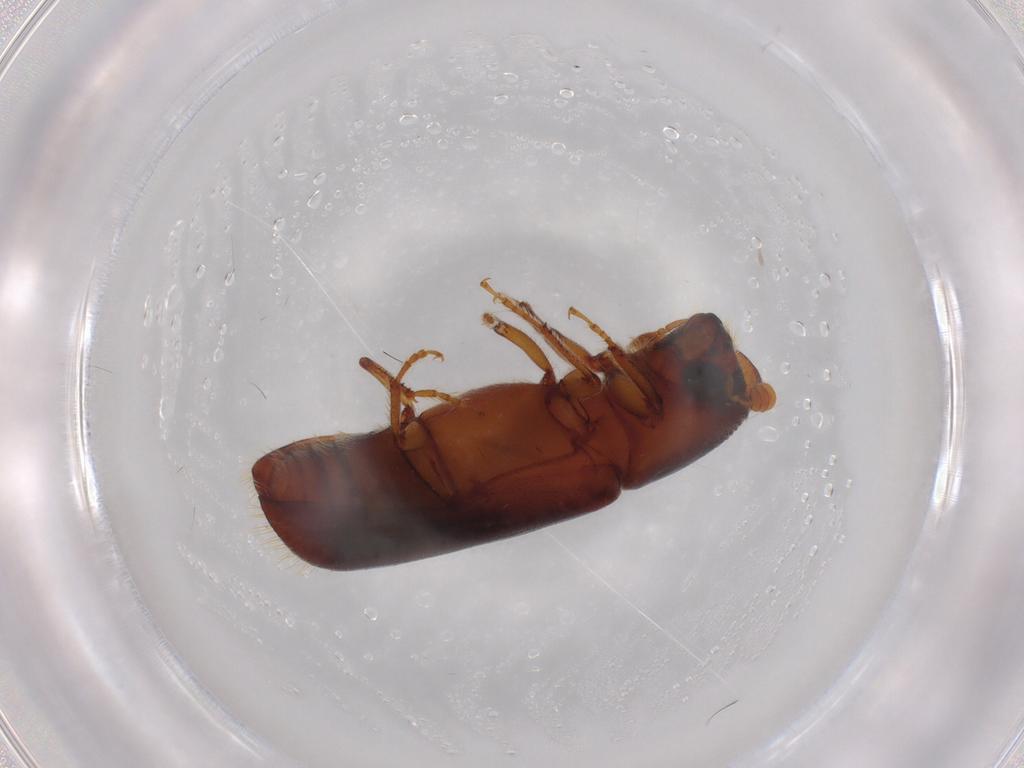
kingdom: Animalia
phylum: Arthropoda
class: Insecta
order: Coleoptera
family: Curculionidae
